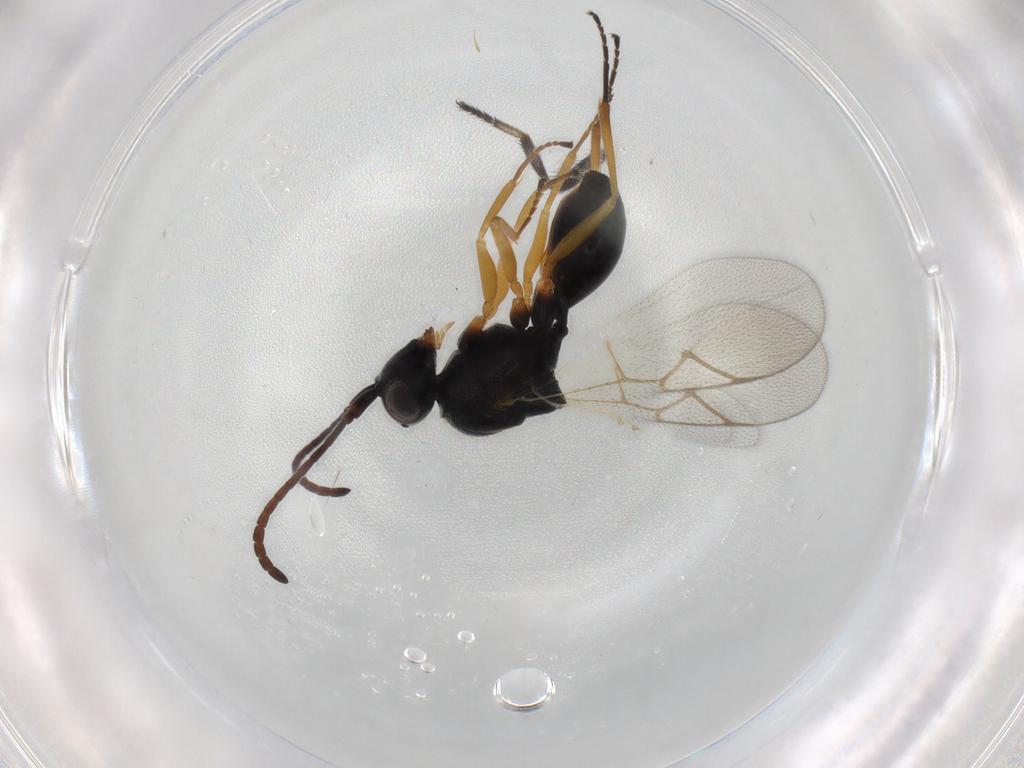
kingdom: Animalia
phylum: Arthropoda
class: Insecta
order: Hymenoptera
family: Figitidae
